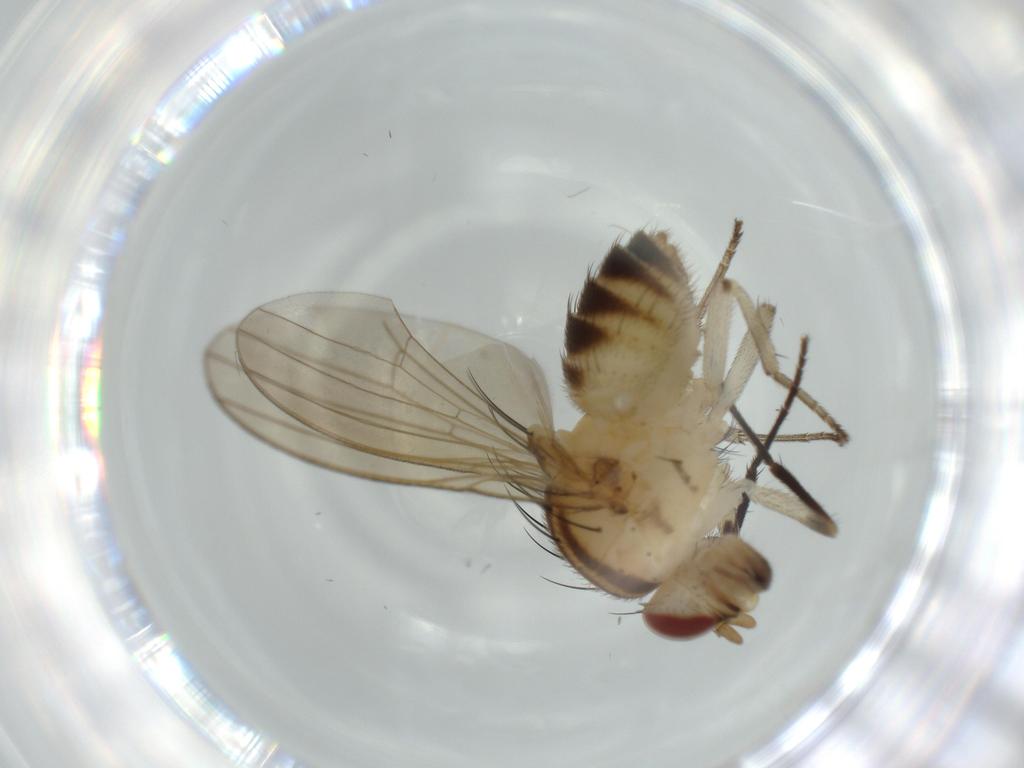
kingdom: Animalia
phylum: Arthropoda
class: Insecta
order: Diptera
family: Lauxaniidae
